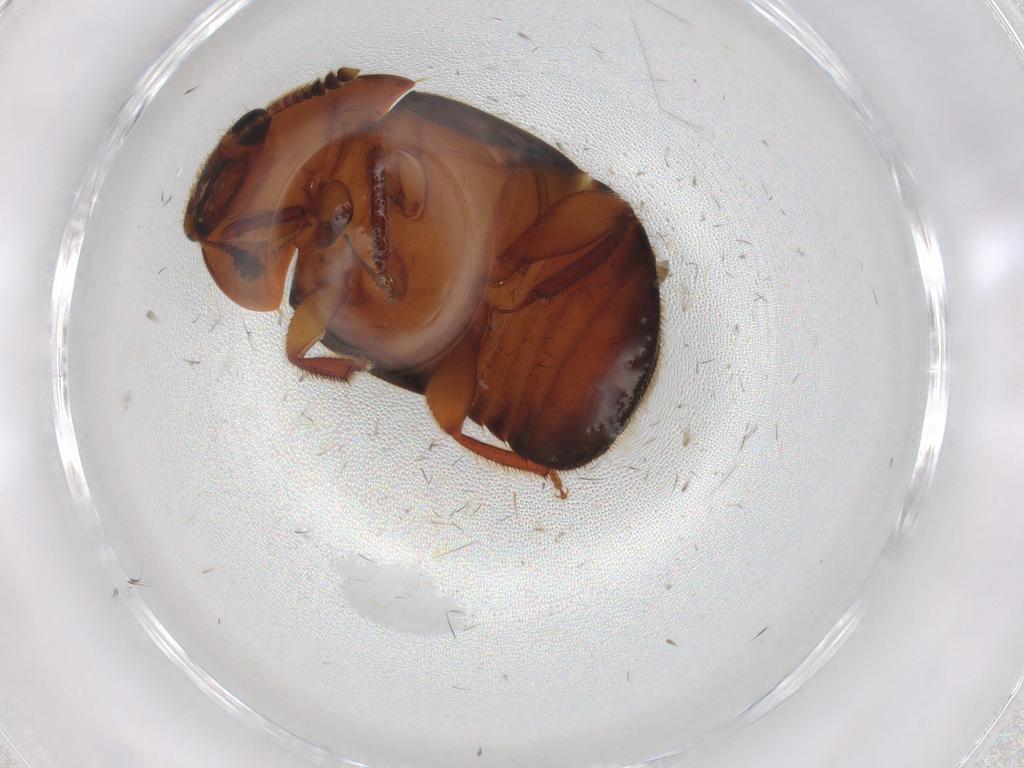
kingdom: Animalia
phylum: Arthropoda
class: Insecta
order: Coleoptera
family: Nitidulidae
